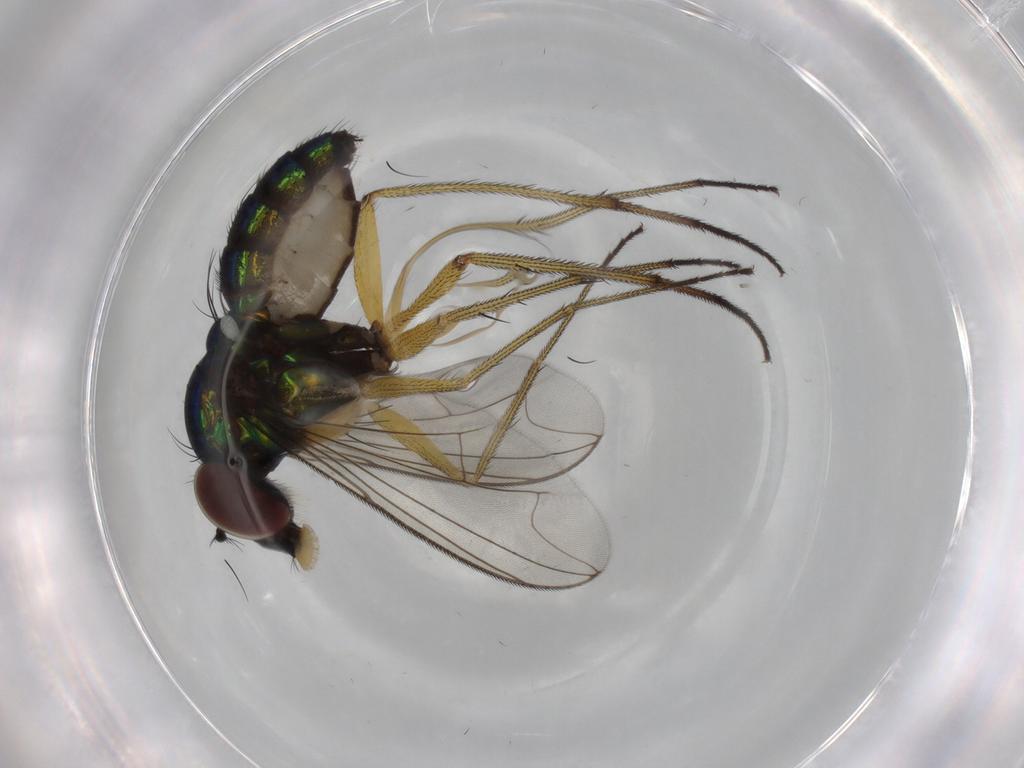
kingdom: Animalia
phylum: Arthropoda
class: Insecta
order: Diptera
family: Dolichopodidae
